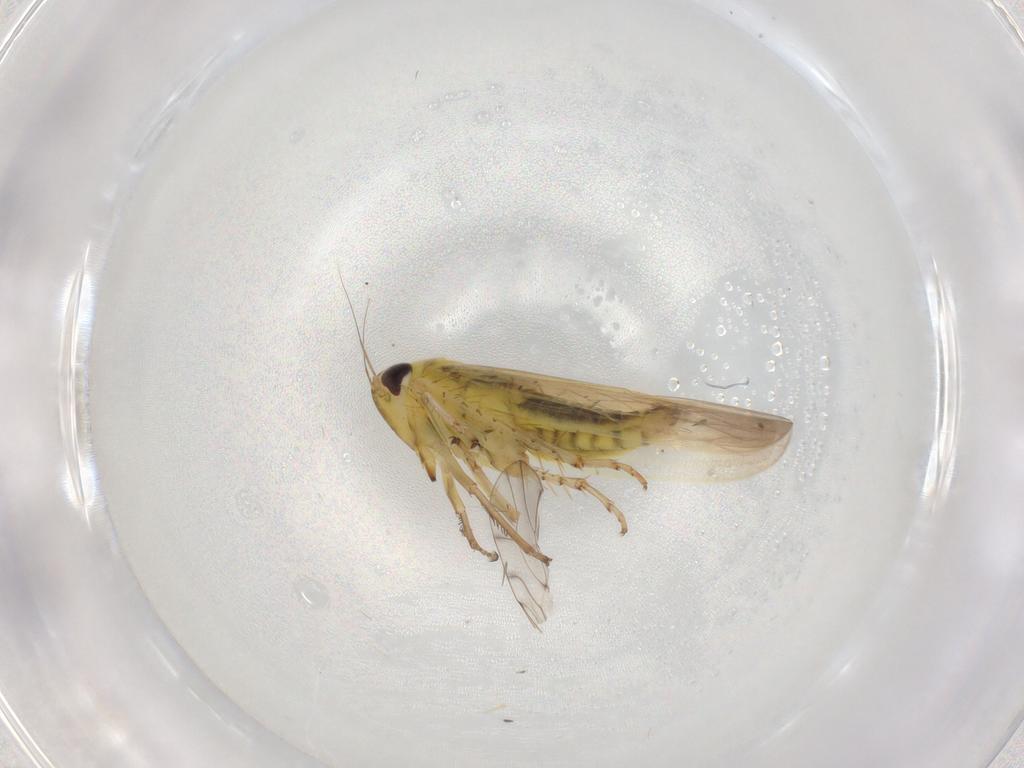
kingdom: Animalia
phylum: Arthropoda
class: Insecta
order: Hemiptera
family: Cicadellidae
